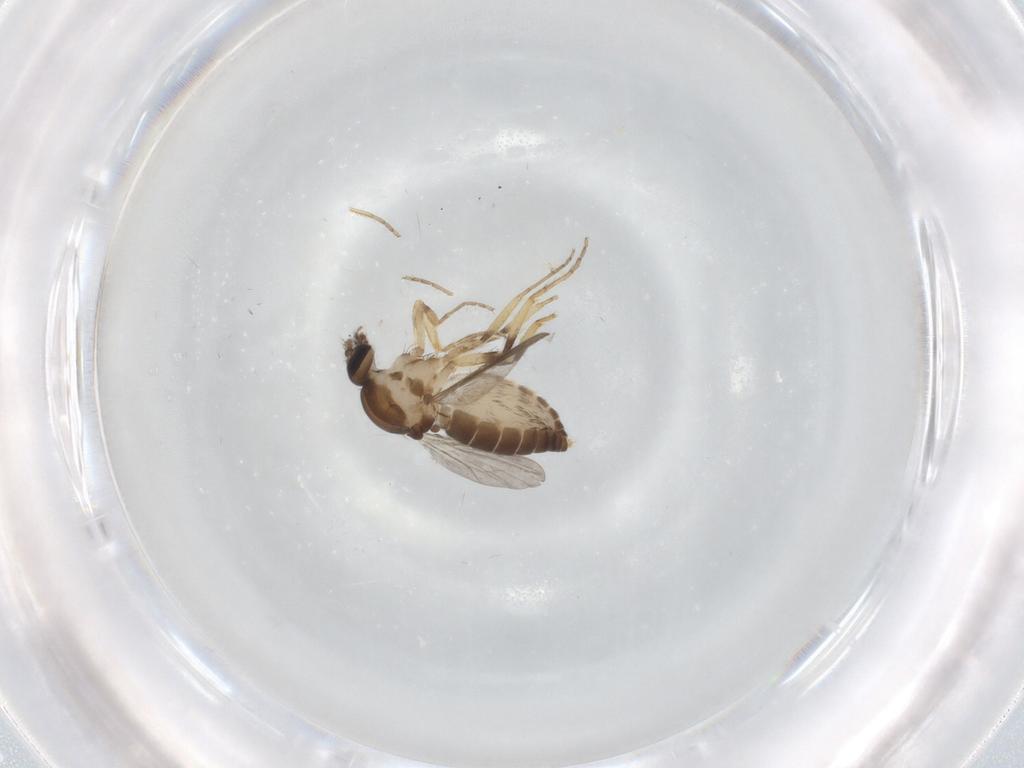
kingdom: Animalia
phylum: Arthropoda
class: Insecta
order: Diptera
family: Ceratopogonidae
